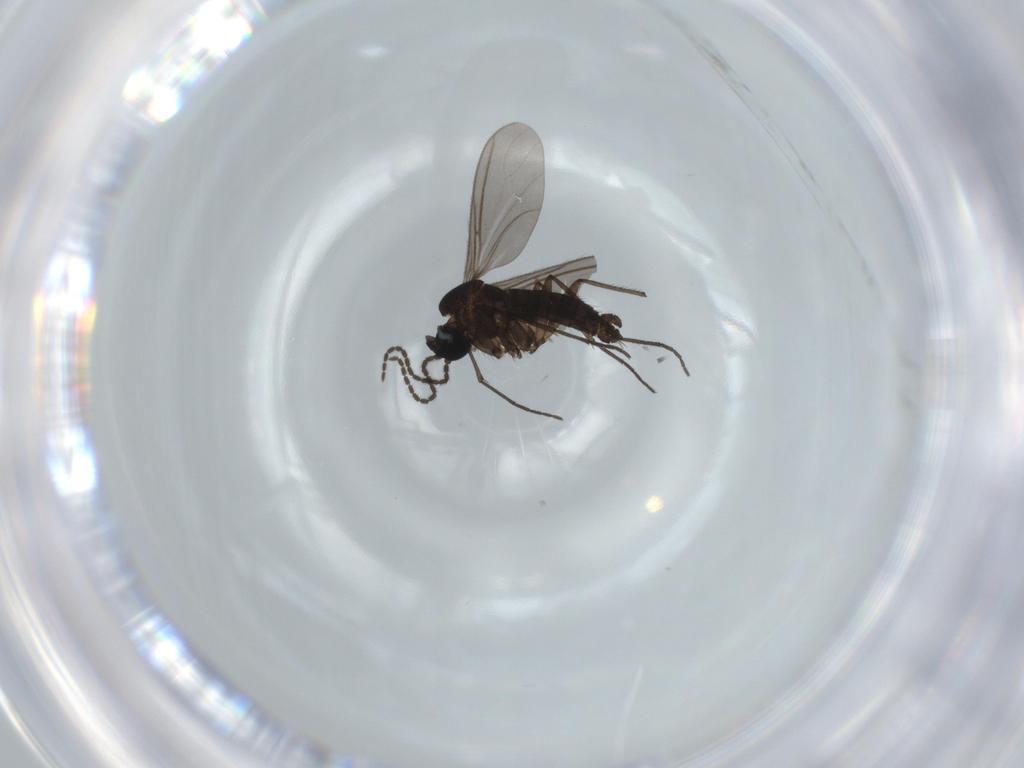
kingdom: Animalia
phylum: Arthropoda
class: Insecta
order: Diptera
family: Sciaridae
